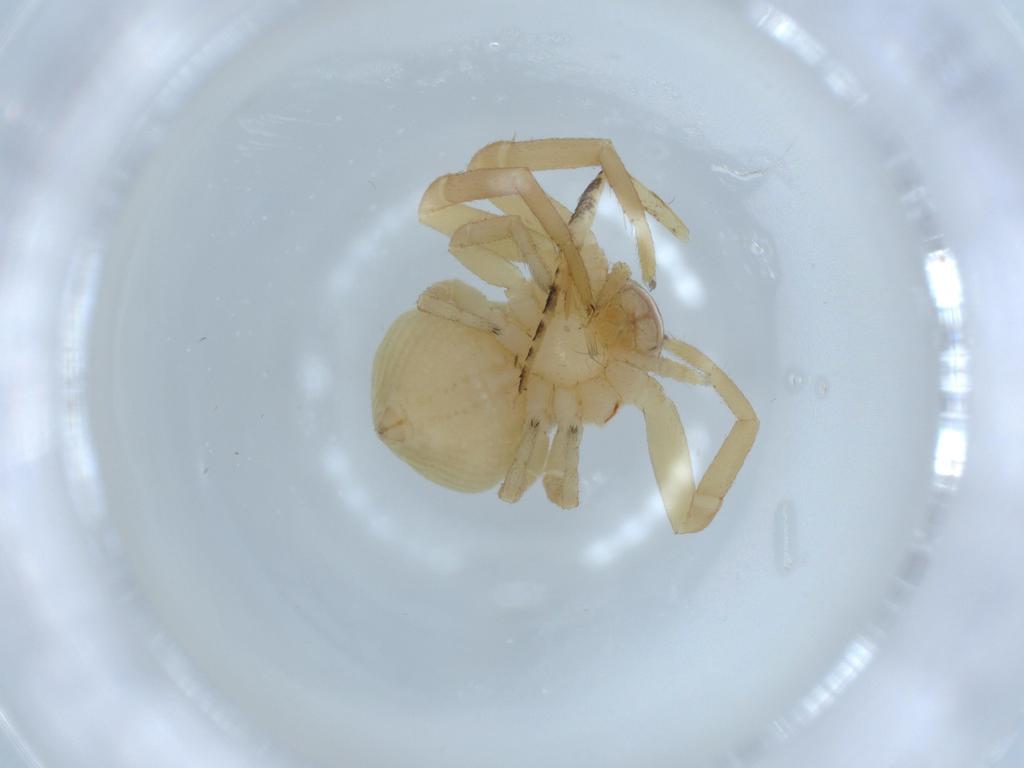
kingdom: Animalia
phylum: Arthropoda
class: Arachnida
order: Araneae
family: Thomisidae
